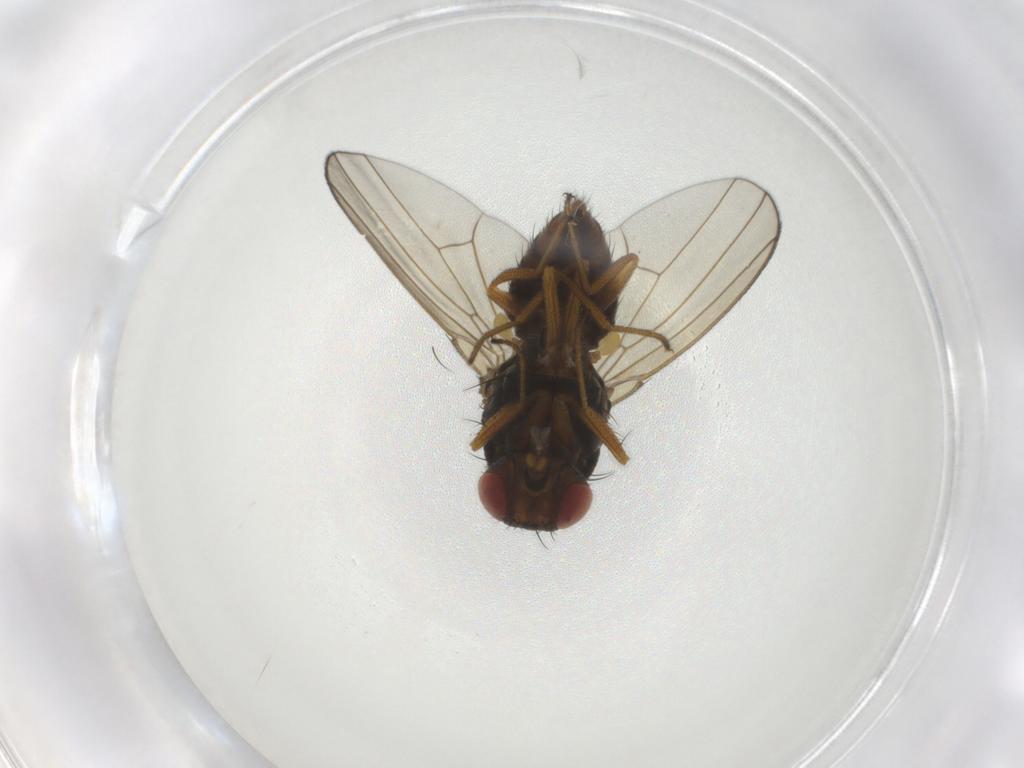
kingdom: Animalia
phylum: Arthropoda
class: Insecta
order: Diptera
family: Drosophilidae
